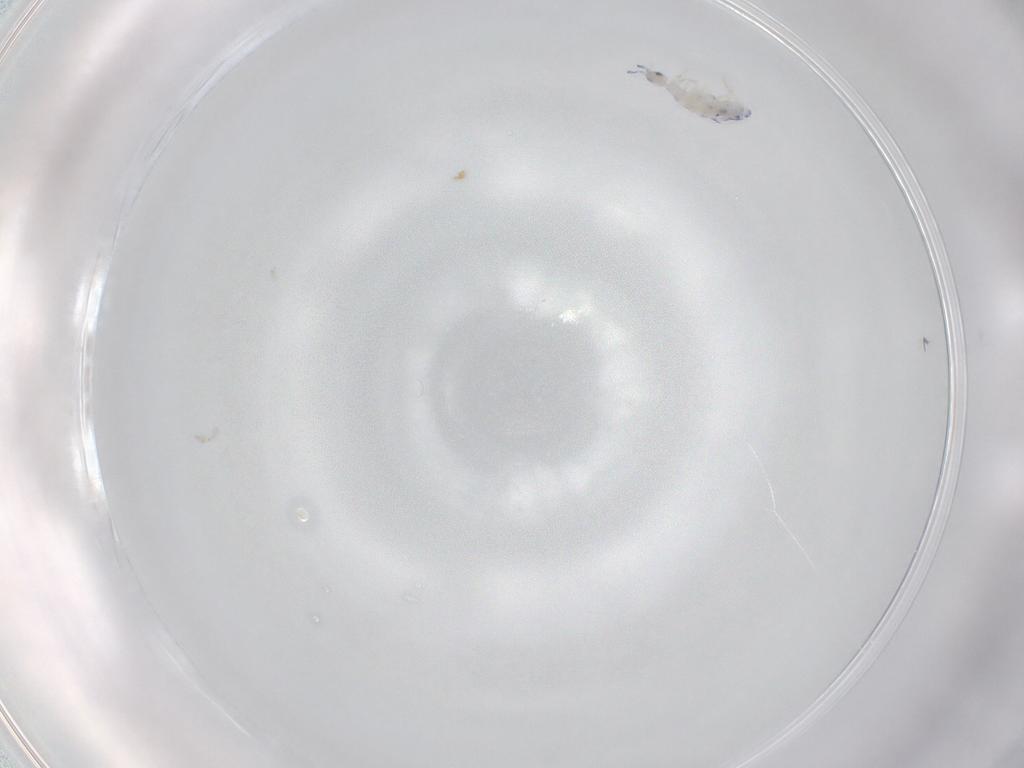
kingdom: Animalia
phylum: Arthropoda
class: Collembola
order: Entomobryomorpha
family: Entomobryidae
